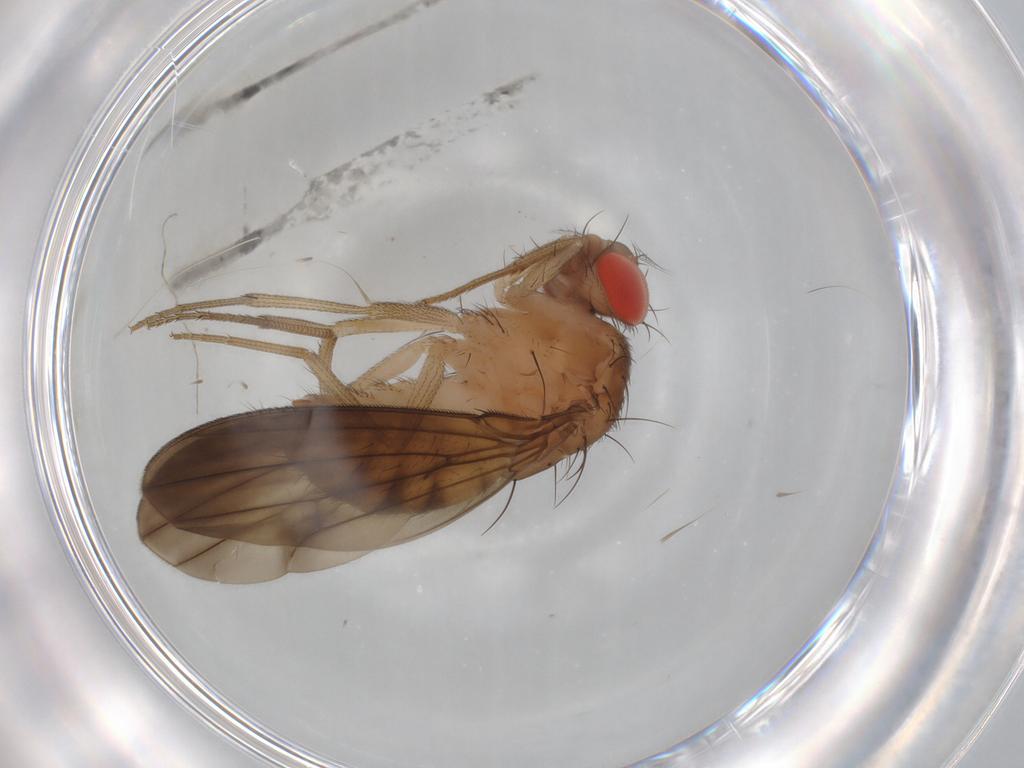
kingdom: Animalia
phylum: Arthropoda
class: Insecta
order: Diptera
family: Drosophilidae
